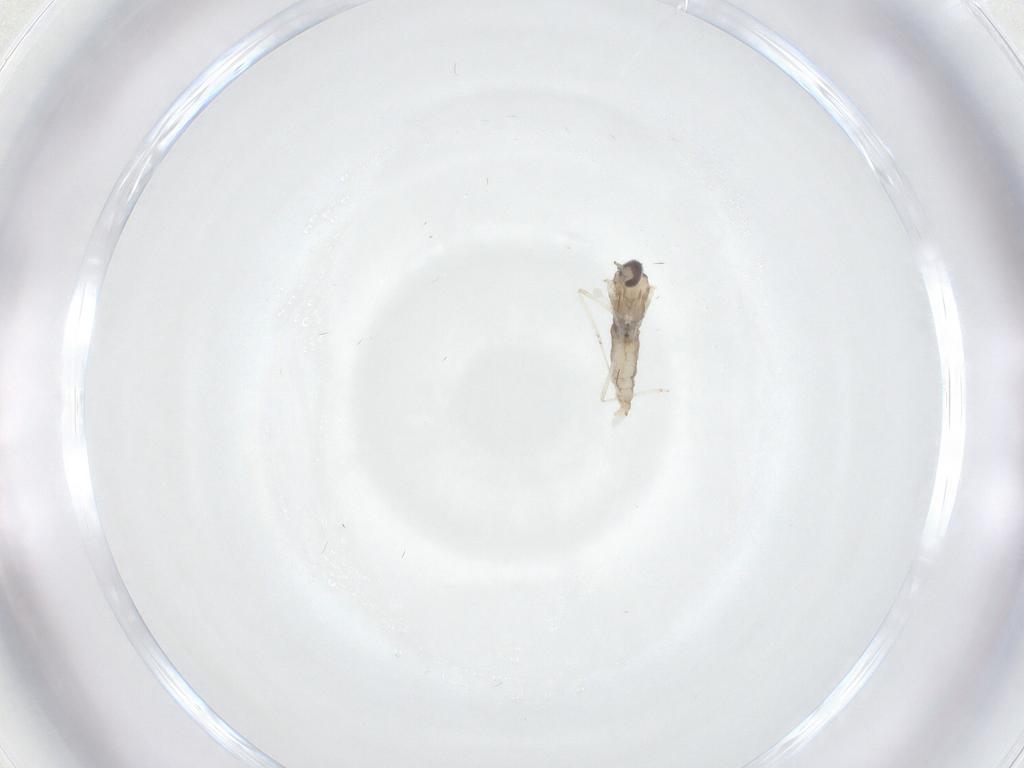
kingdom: Animalia
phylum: Arthropoda
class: Insecta
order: Diptera
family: Cecidomyiidae
